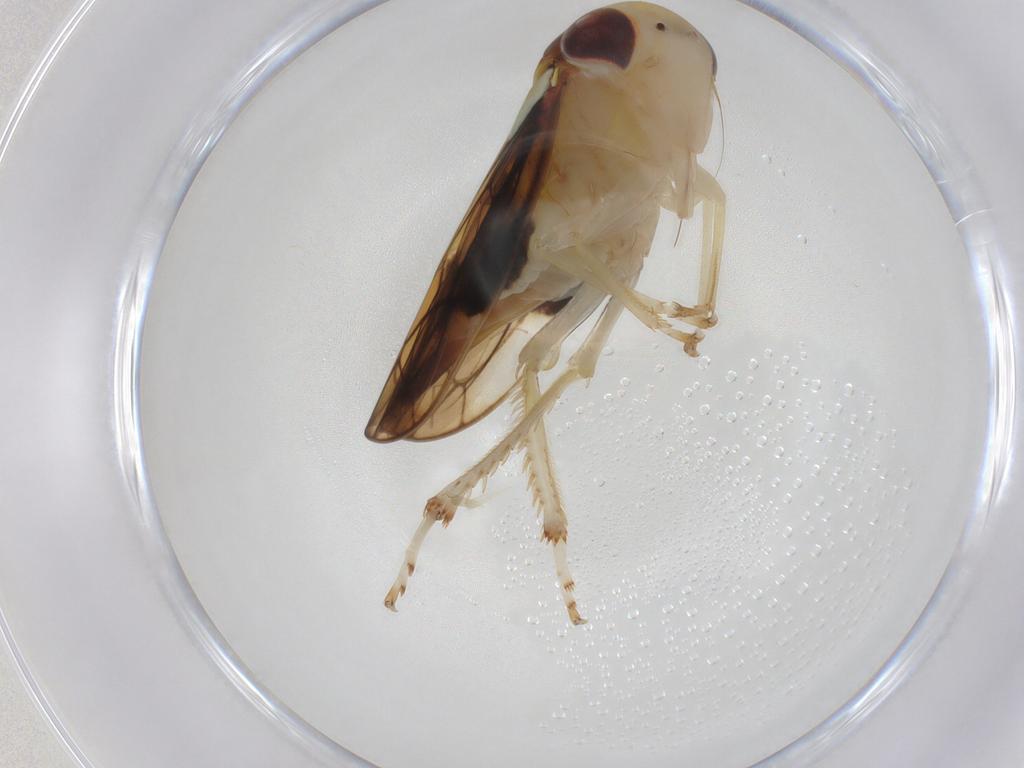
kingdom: Animalia
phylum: Arthropoda
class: Insecta
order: Hemiptera
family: Cicadellidae
